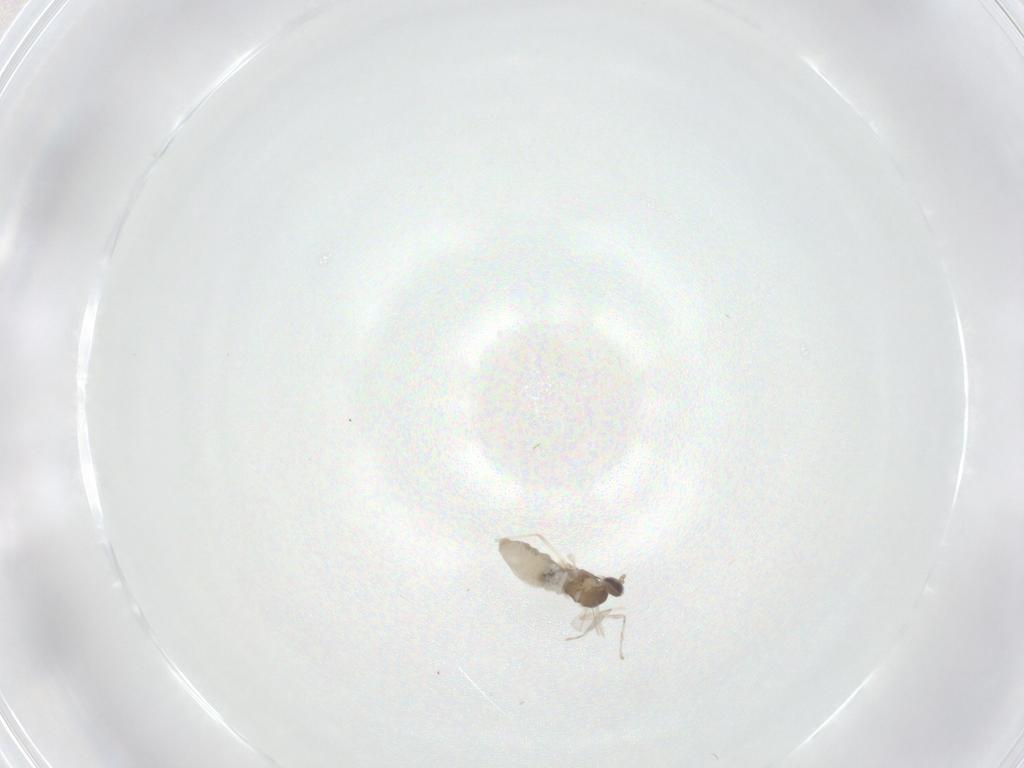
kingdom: Animalia
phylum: Arthropoda
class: Insecta
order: Diptera
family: Cecidomyiidae
